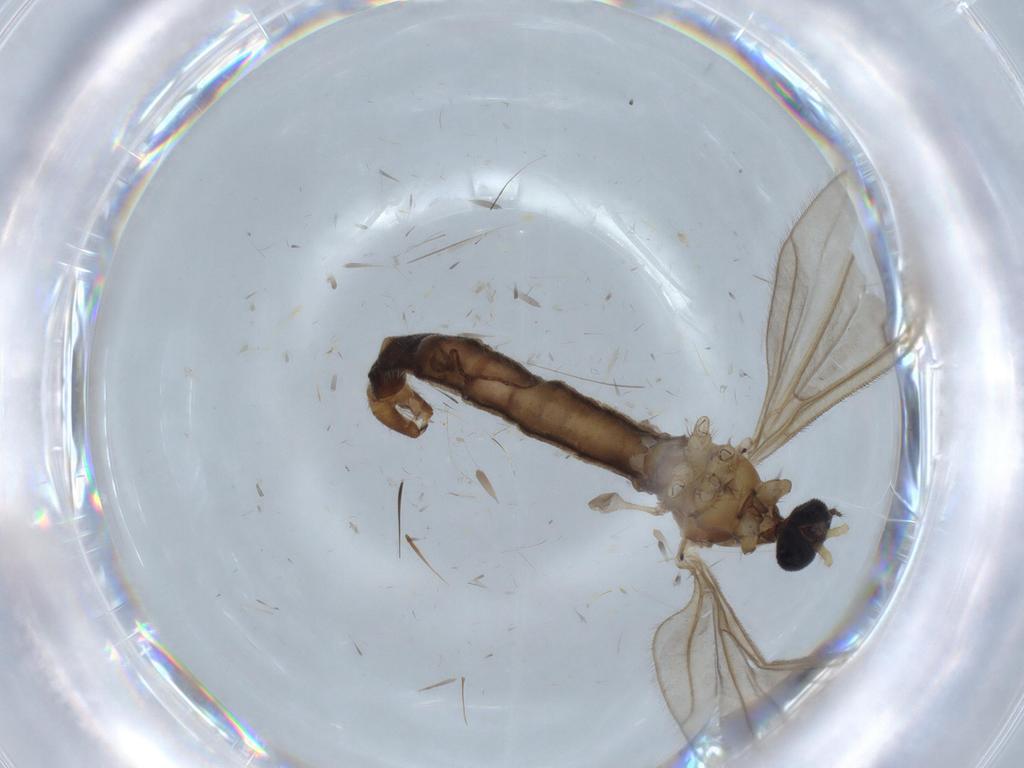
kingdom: Animalia
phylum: Arthropoda
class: Insecta
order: Diptera
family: Drosophilidae
